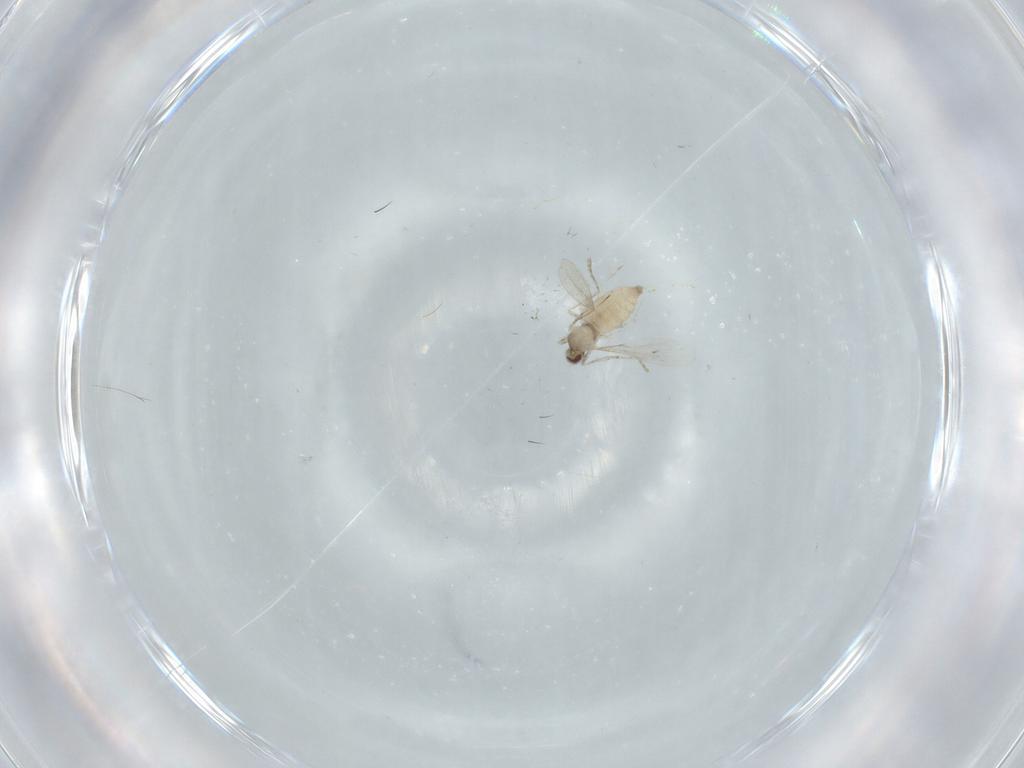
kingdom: Animalia
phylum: Arthropoda
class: Insecta
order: Diptera
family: Cecidomyiidae
